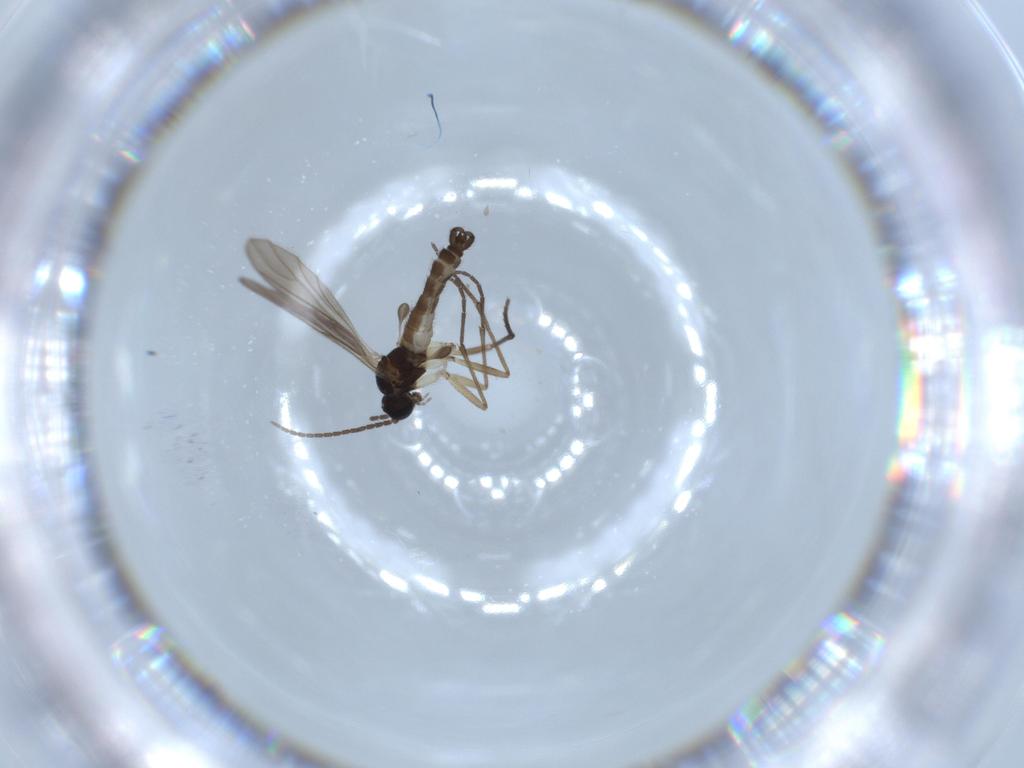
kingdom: Animalia
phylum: Arthropoda
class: Insecta
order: Diptera
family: Sciaridae
